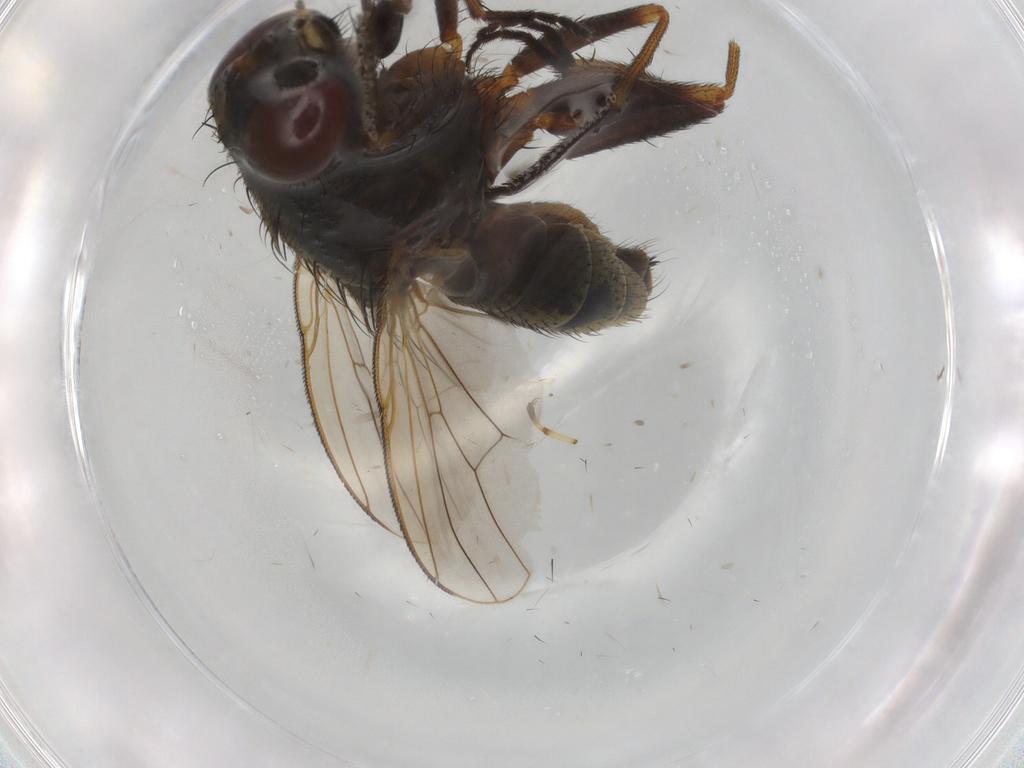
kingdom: Animalia
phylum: Arthropoda
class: Insecta
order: Diptera
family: Muscidae
